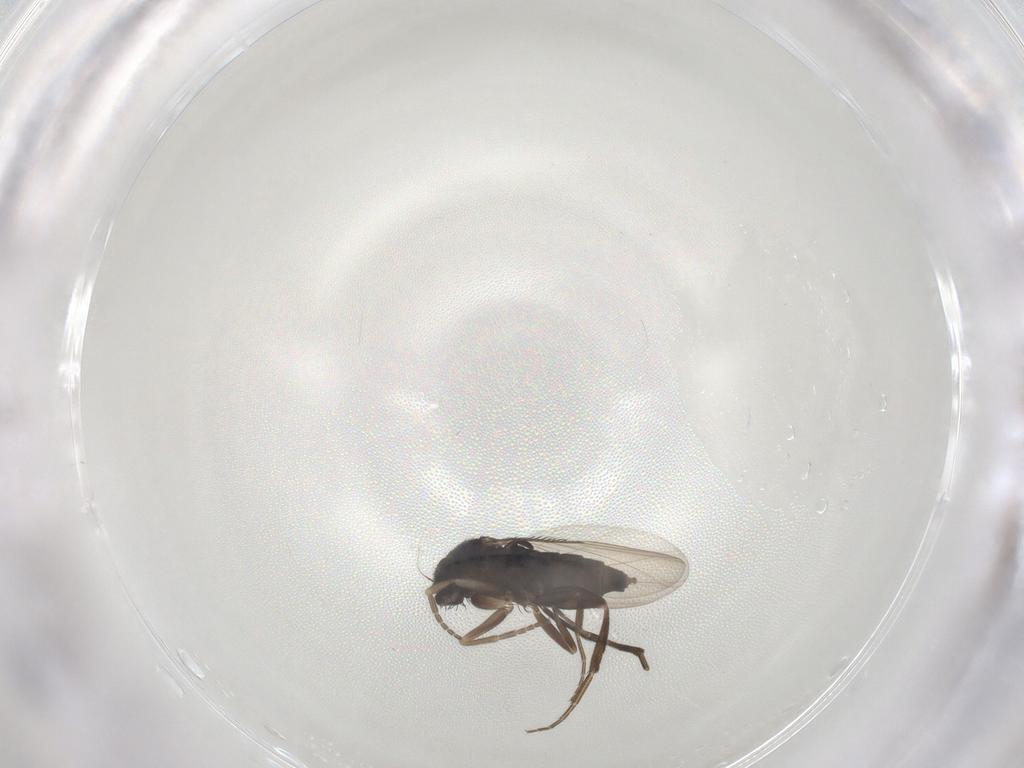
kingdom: Animalia
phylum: Arthropoda
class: Insecta
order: Diptera
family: Phoridae
